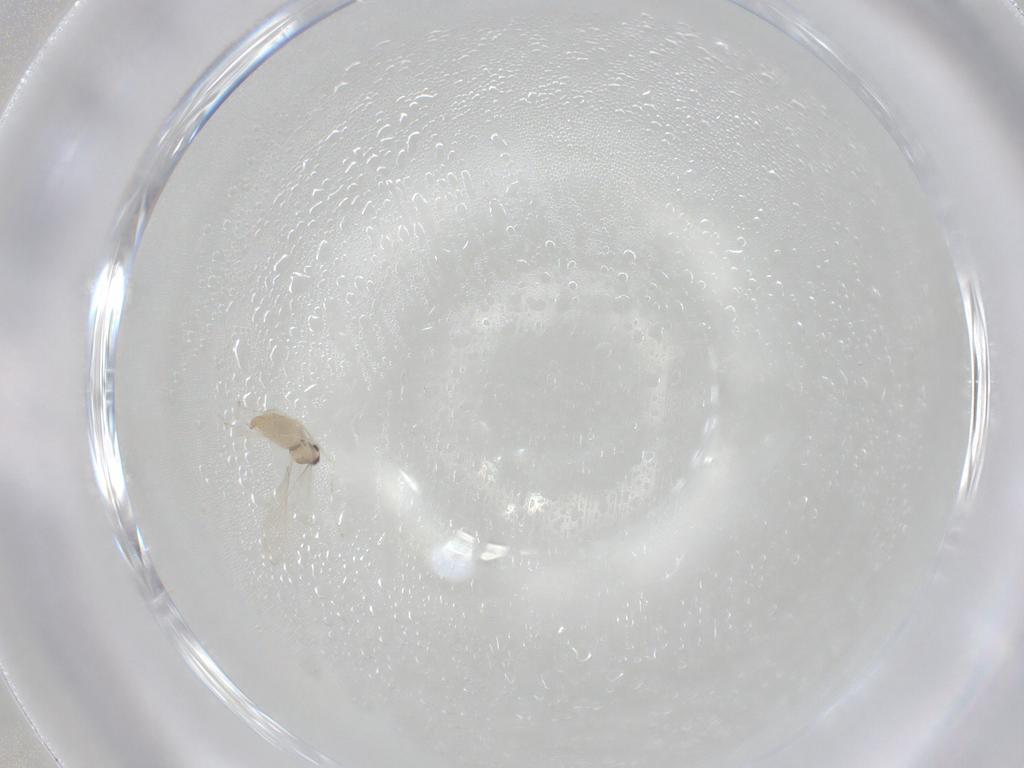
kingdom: Animalia
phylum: Arthropoda
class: Insecta
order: Diptera
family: Cecidomyiidae
